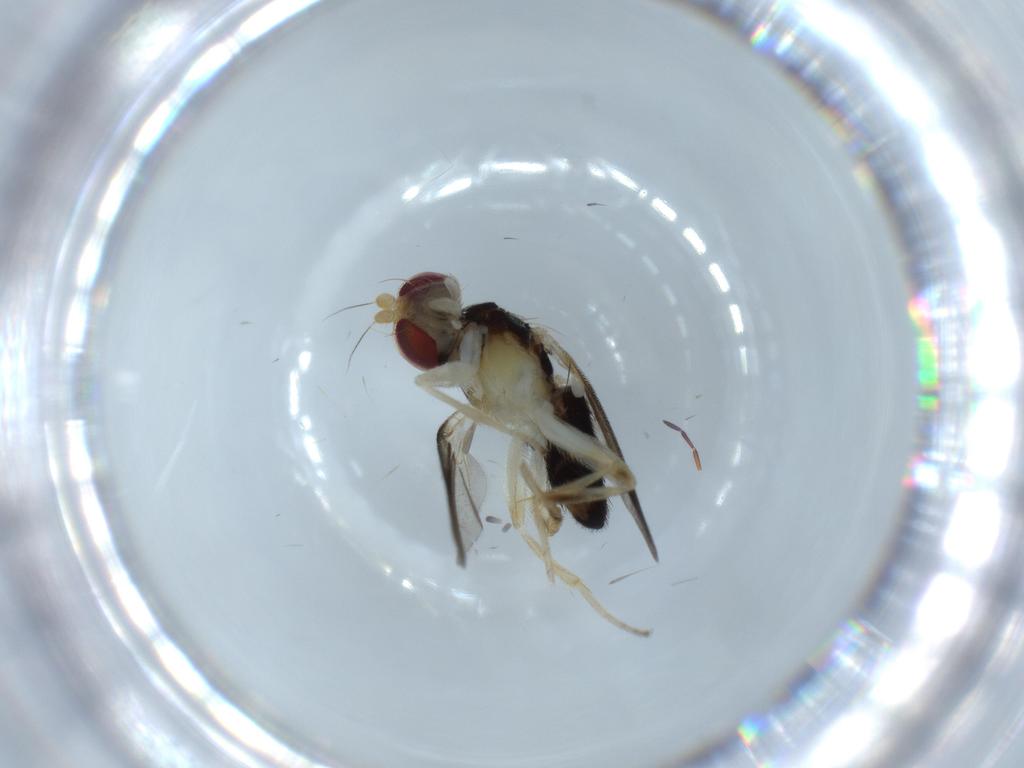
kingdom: Animalia
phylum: Arthropoda
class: Insecta
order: Diptera
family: Clusiidae
